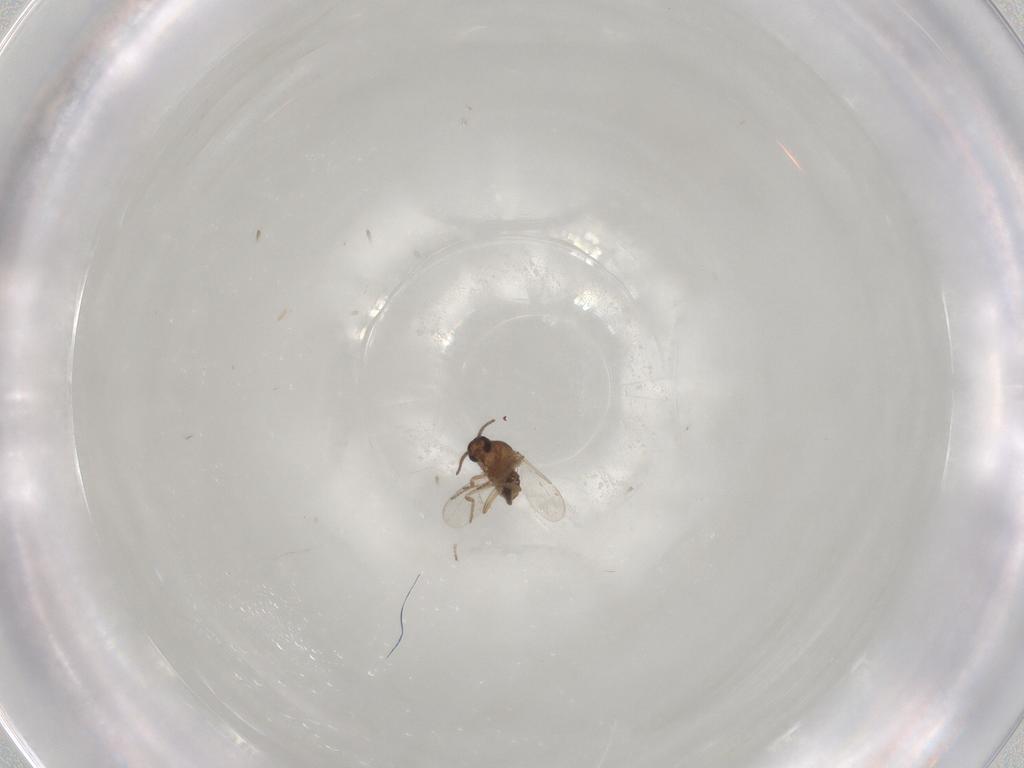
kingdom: Animalia
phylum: Arthropoda
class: Insecta
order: Diptera
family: Ceratopogonidae
